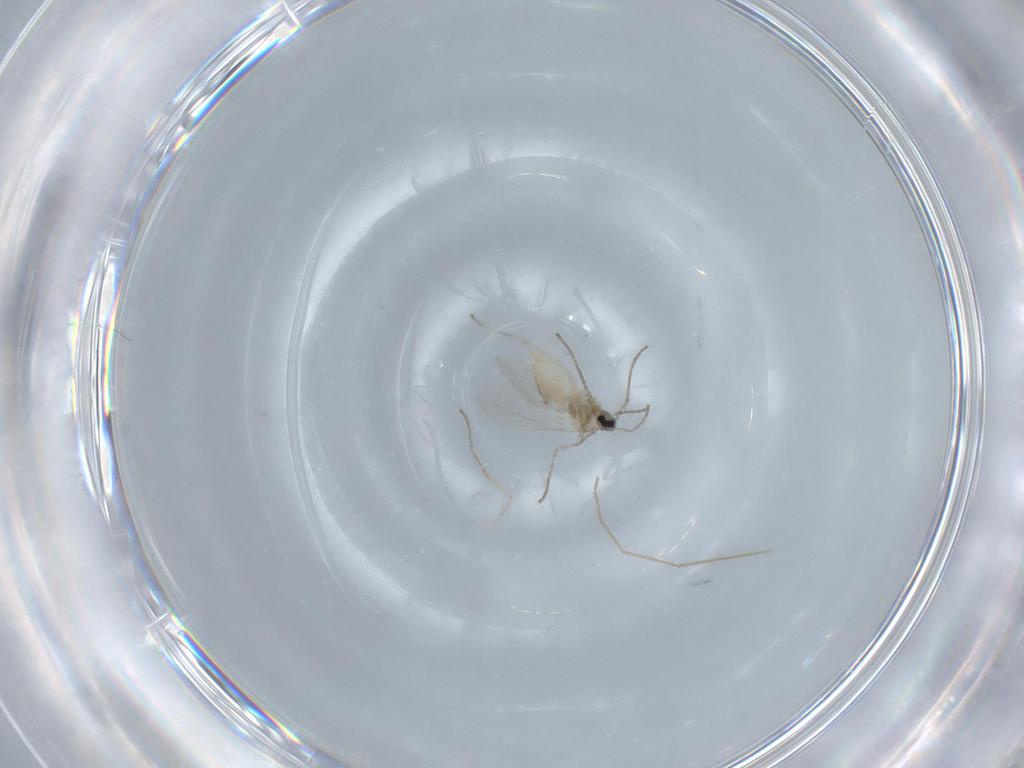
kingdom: Animalia
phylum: Arthropoda
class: Insecta
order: Diptera
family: Cecidomyiidae
